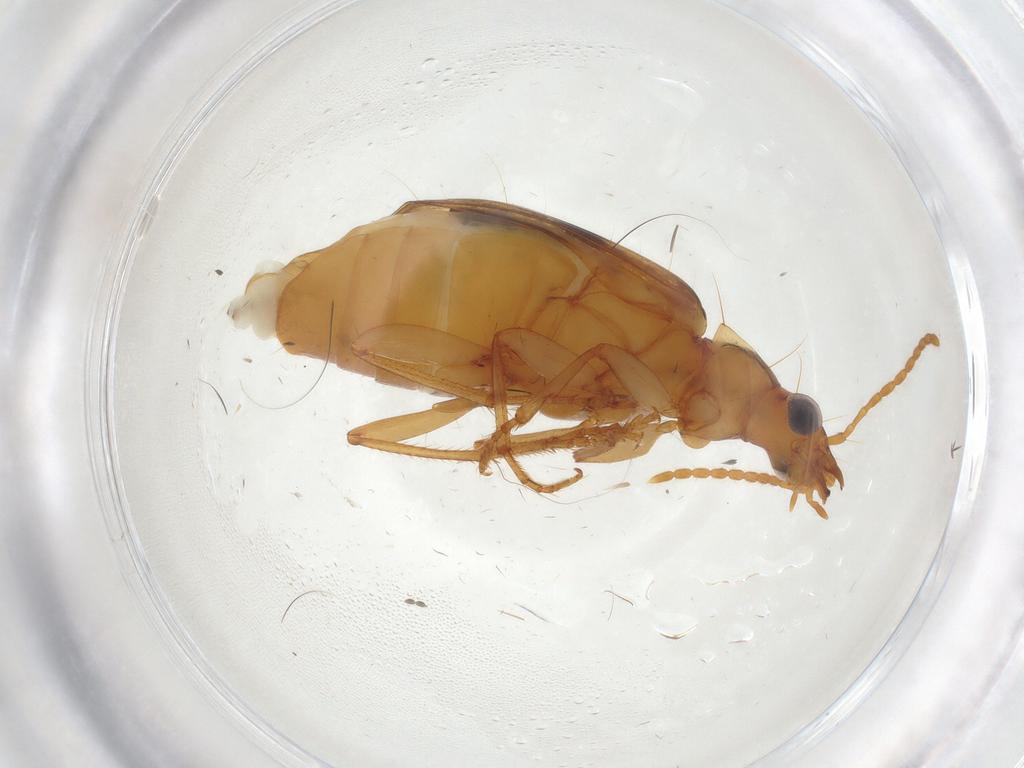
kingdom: Animalia
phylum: Arthropoda
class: Insecta
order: Coleoptera
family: Carabidae
